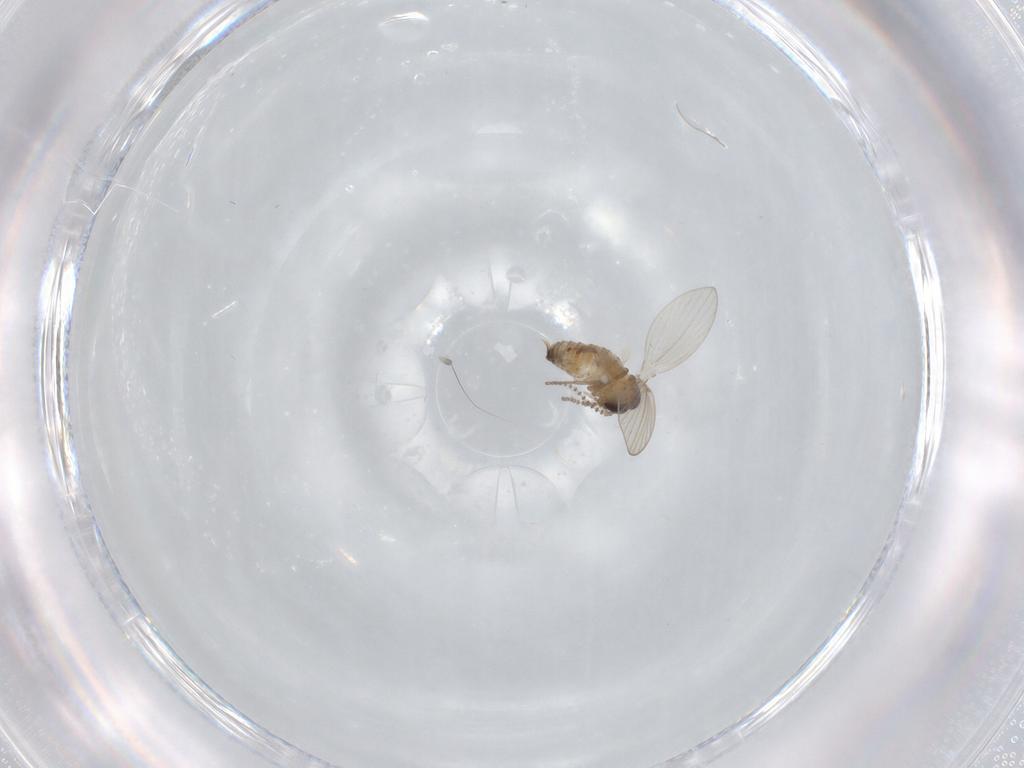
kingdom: Animalia
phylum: Arthropoda
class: Insecta
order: Diptera
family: Psychodidae
